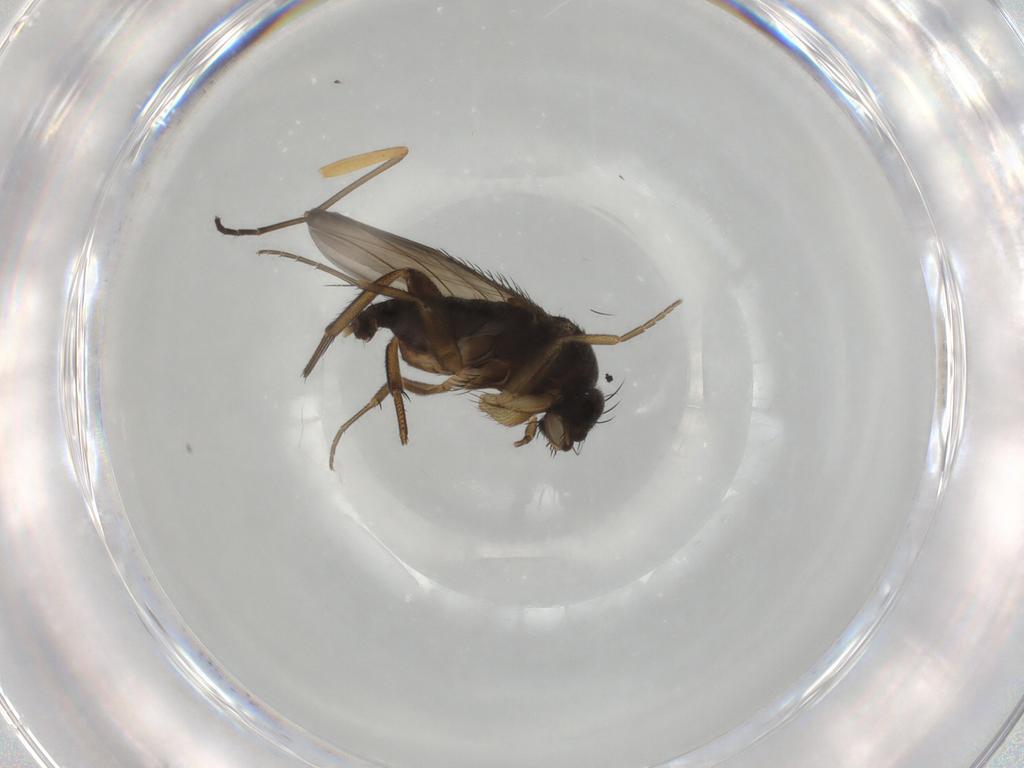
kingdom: Animalia
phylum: Arthropoda
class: Insecta
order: Diptera
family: Phoridae
